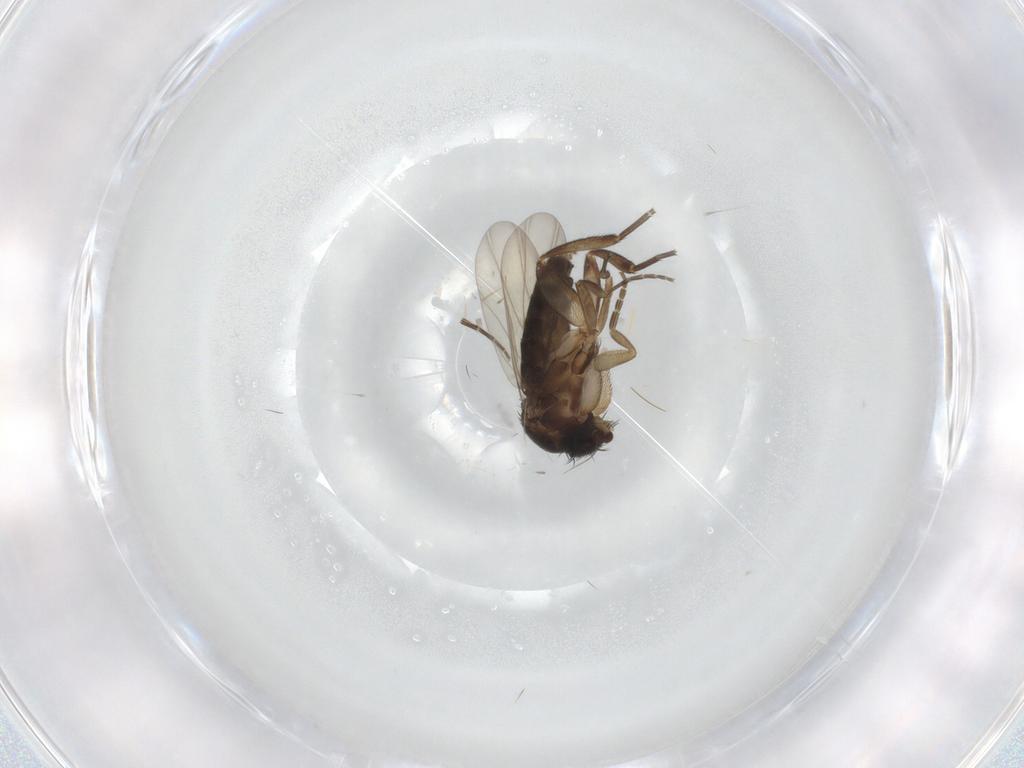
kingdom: Animalia
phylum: Arthropoda
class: Insecta
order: Diptera
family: Phoridae
